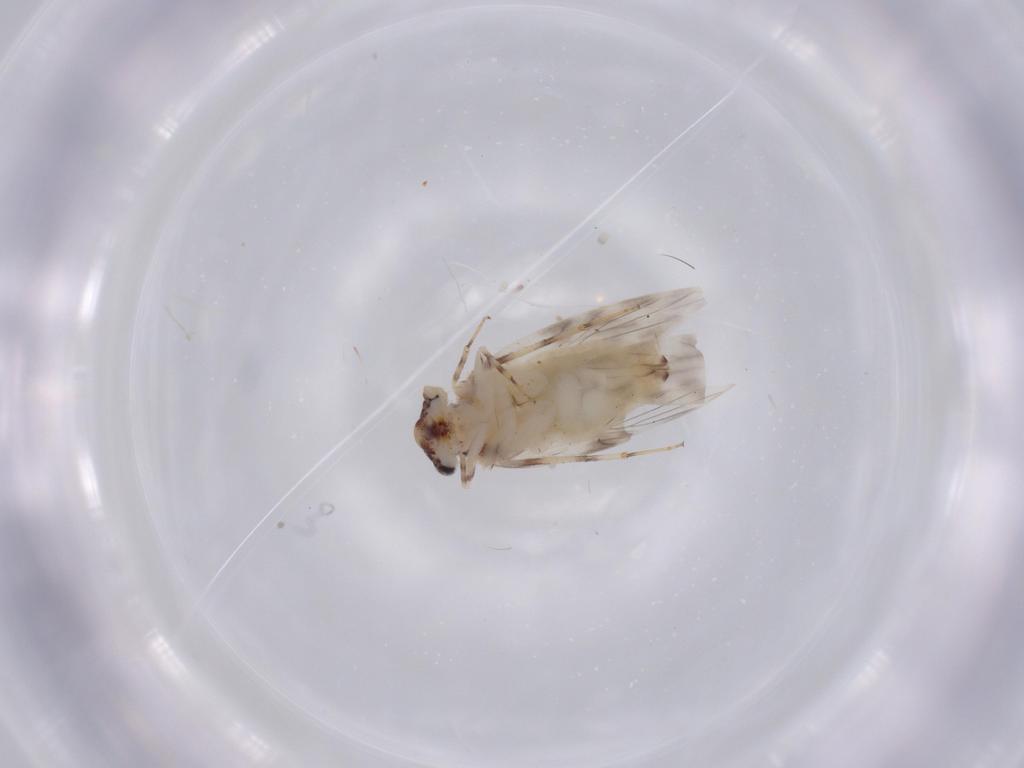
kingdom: Animalia
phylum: Arthropoda
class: Insecta
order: Psocodea
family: Lepidopsocidae
